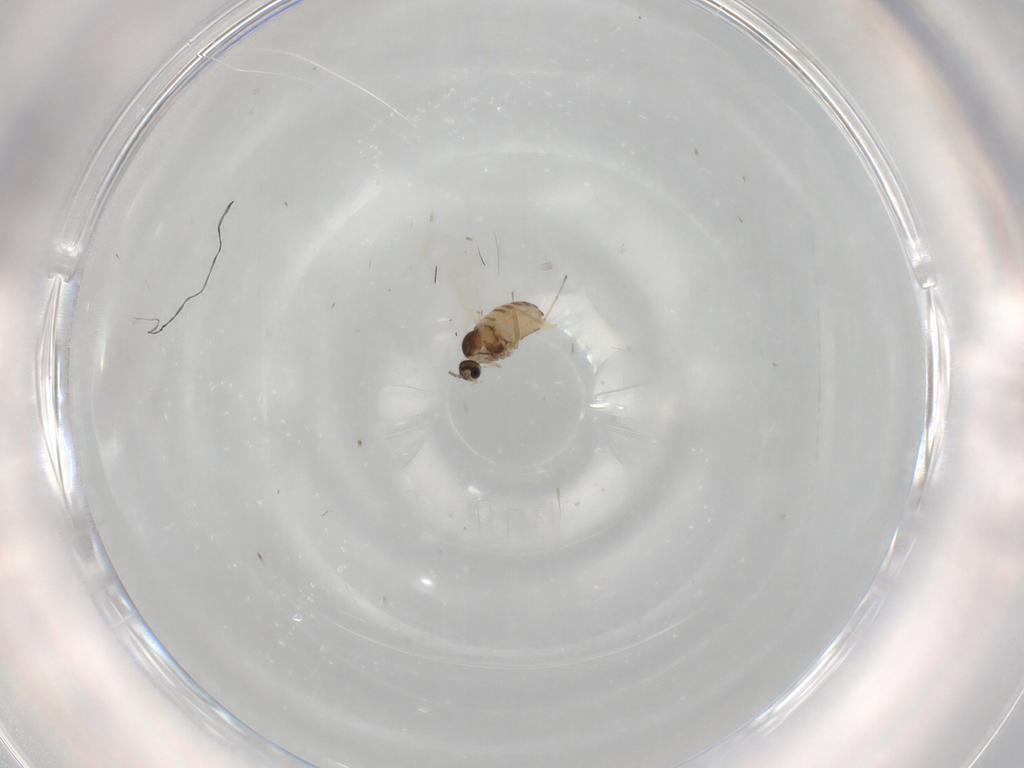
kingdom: Animalia
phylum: Arthropoda
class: Insecta
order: Diptera
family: Cecidomyiidae
